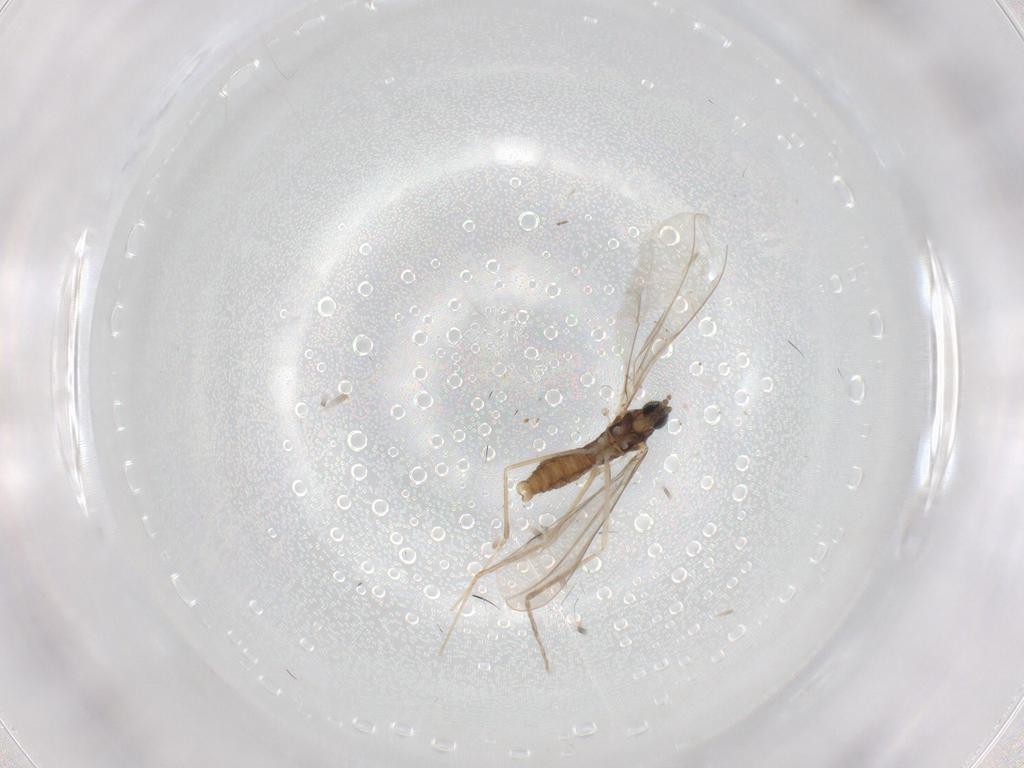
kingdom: Animalia
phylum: Arthropoda
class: Insecta
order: Diptera
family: Cecidomyiidae
